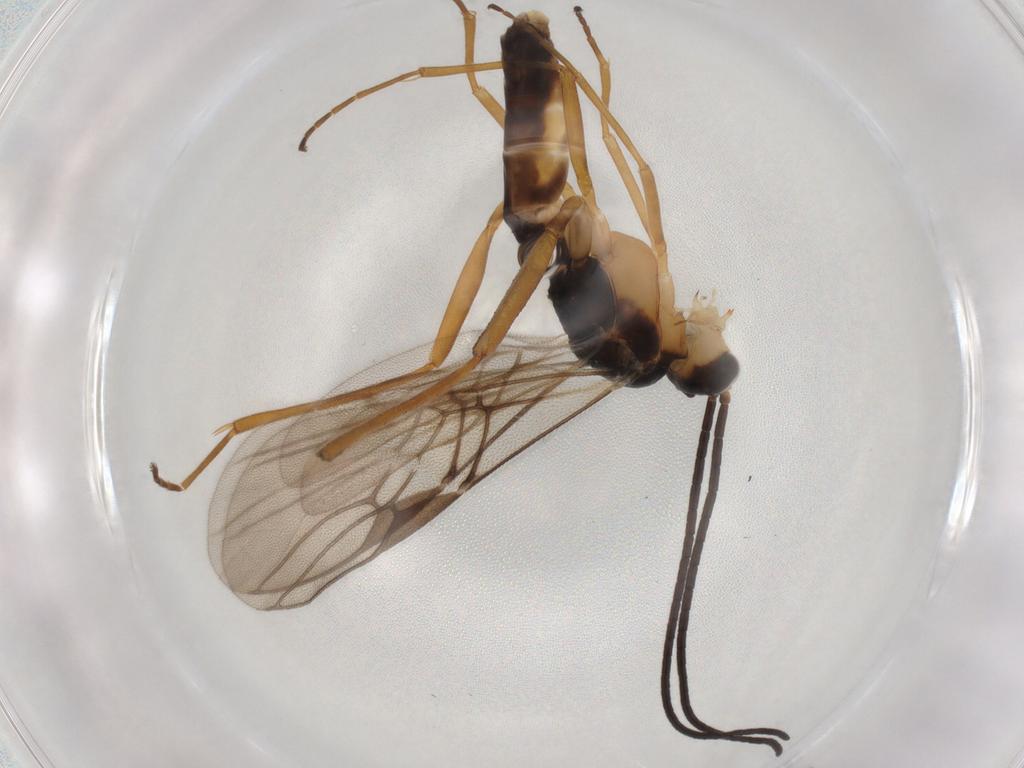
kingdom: Animalia
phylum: Arthropoda
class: Insecta
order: Hymenoptera
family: Braconidae
